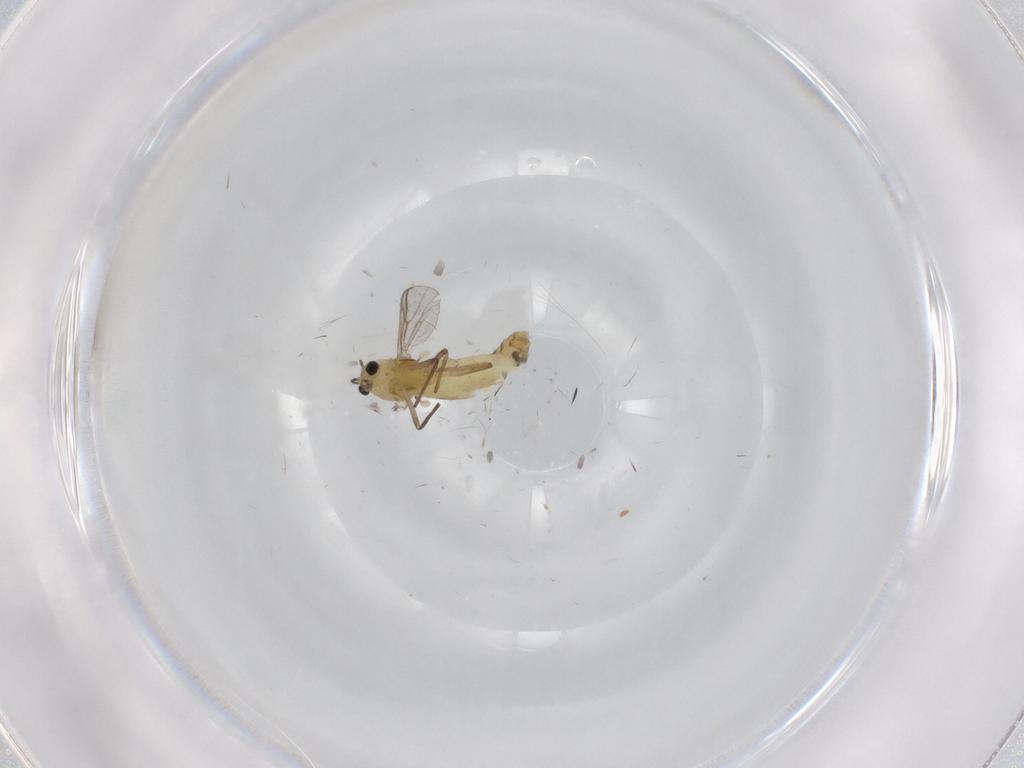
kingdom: Animalia
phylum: Arthropoda
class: Insecta
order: Diptera
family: Chironomidae
